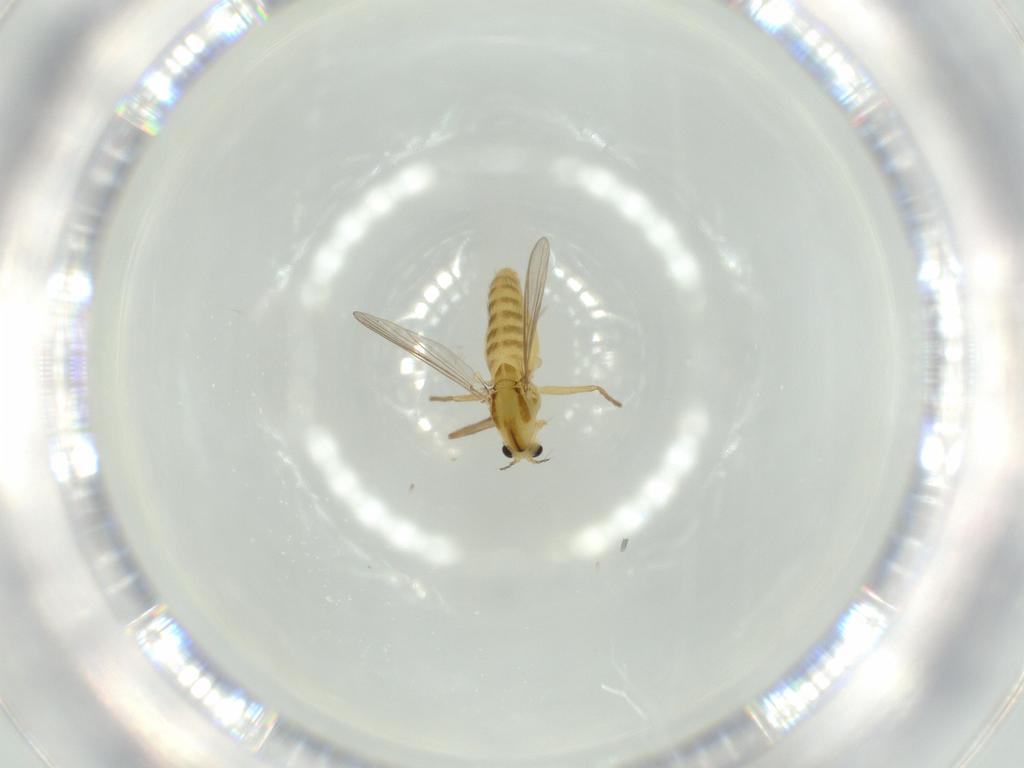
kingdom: Animalia
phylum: Arthropoda
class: Insecta
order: Diptera
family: Chironomidae
